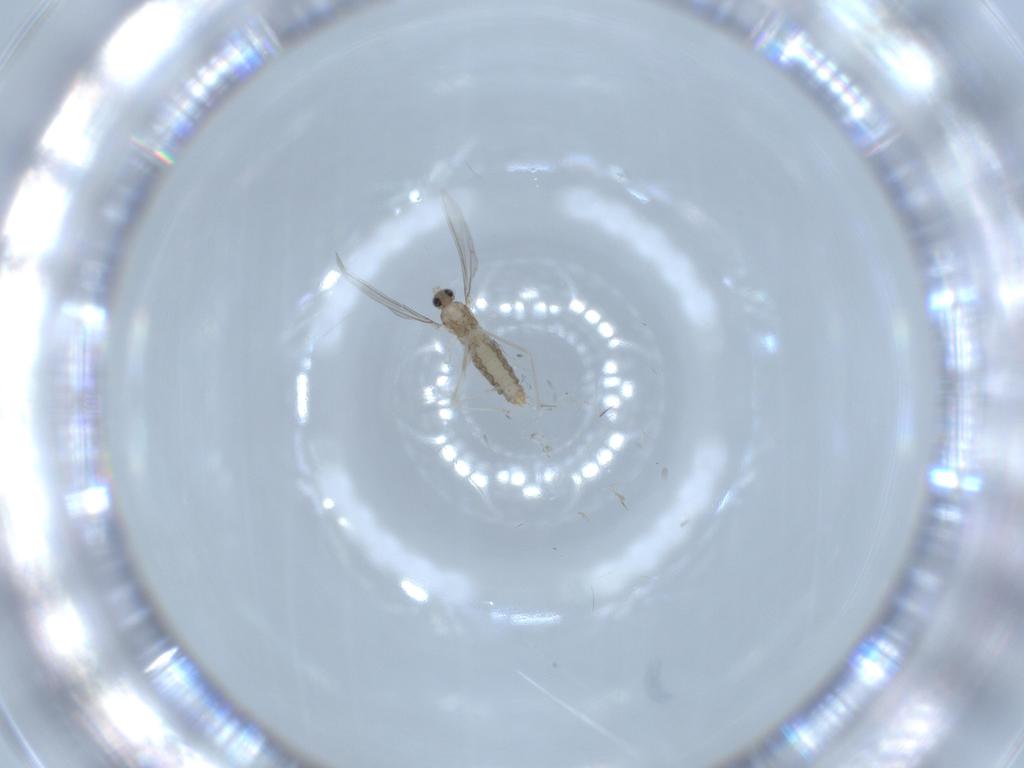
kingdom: Animalia
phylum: Arthropoda
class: Insecta
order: Diptera
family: Cecidomyiidae
